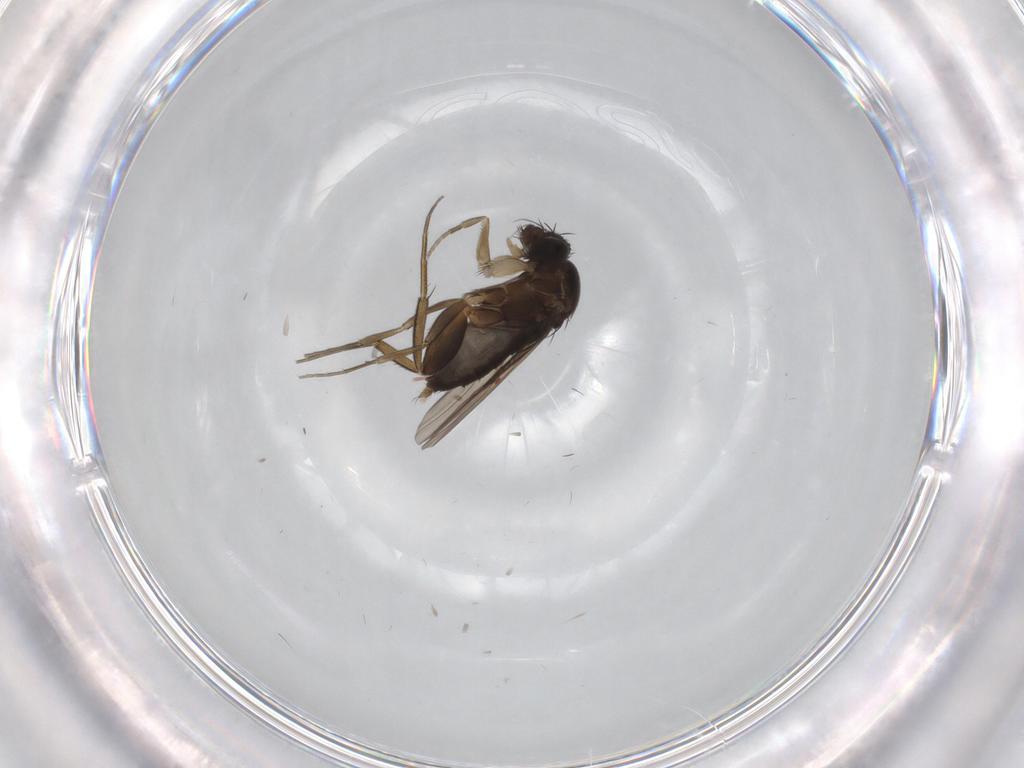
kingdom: Animalia
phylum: Arthropoda
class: Insecta
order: Diptera
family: Phoridae
